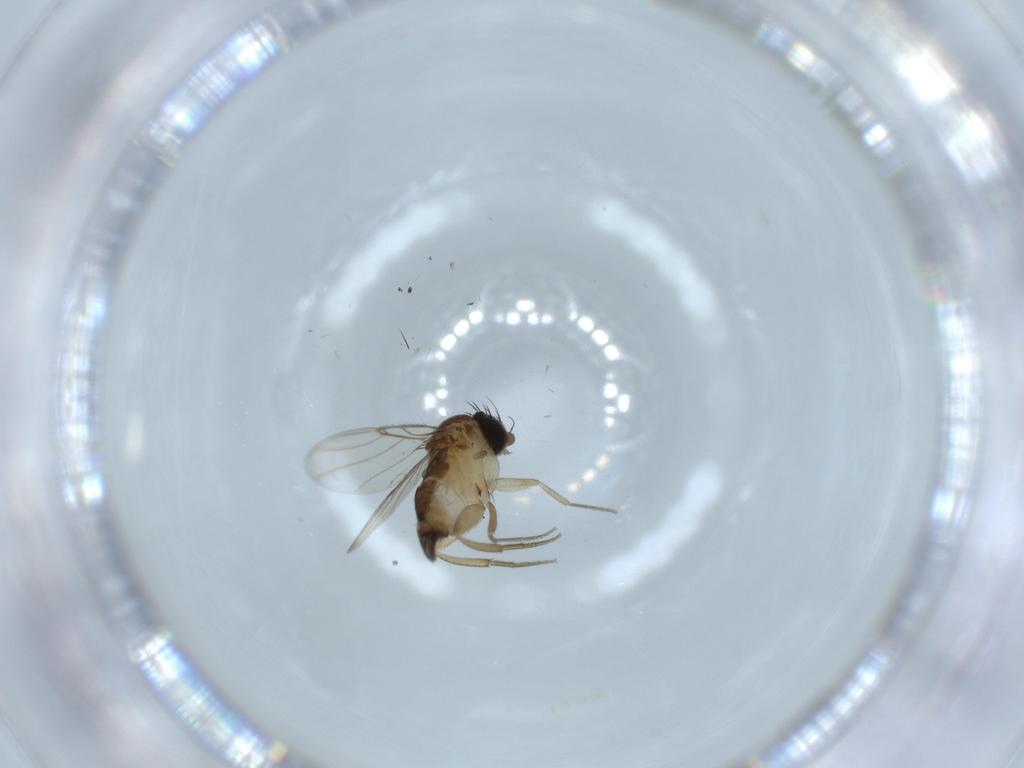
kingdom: Animalia
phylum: Arthropoda
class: Insecta
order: Diptera
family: Phoridae
